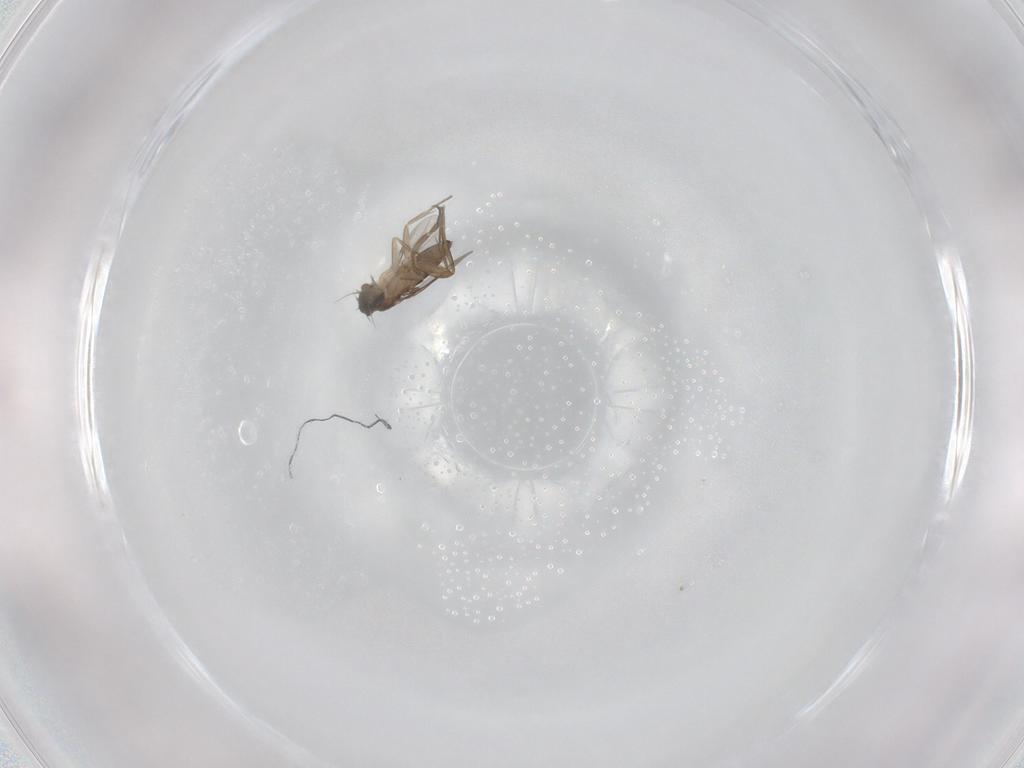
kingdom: Animalia
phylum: Arthropoda
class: Insecta
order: Diptera
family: Phoridae
